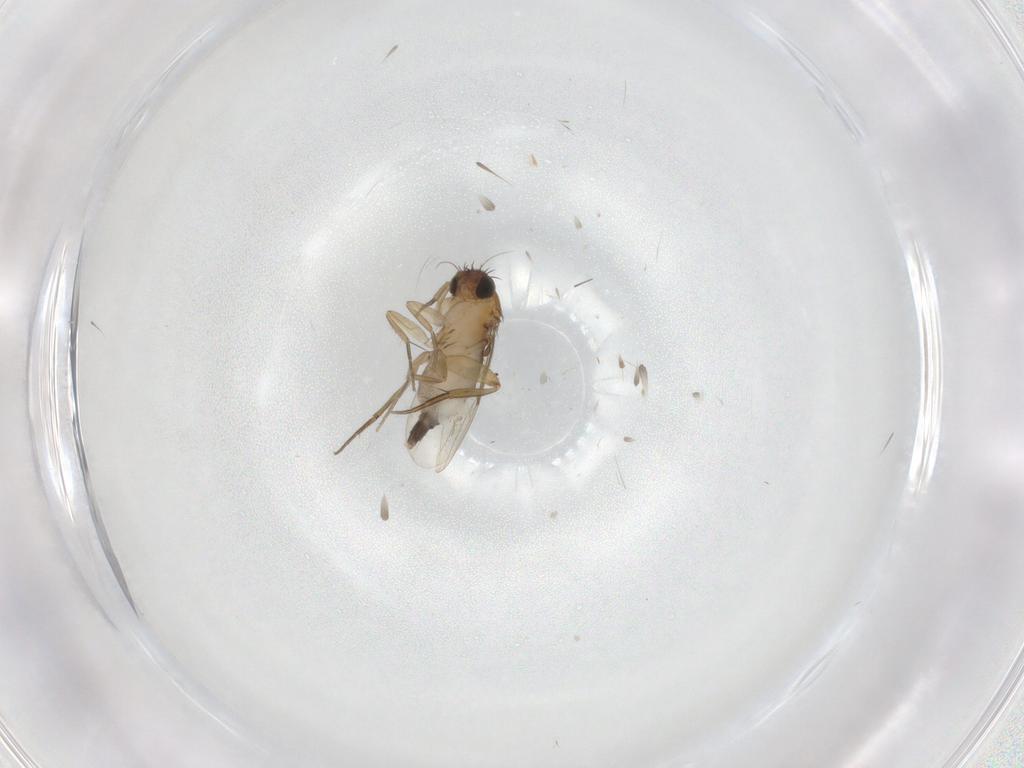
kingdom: Animalia
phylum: Arthropoda
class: Insecta
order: Diptera
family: Phoridae
